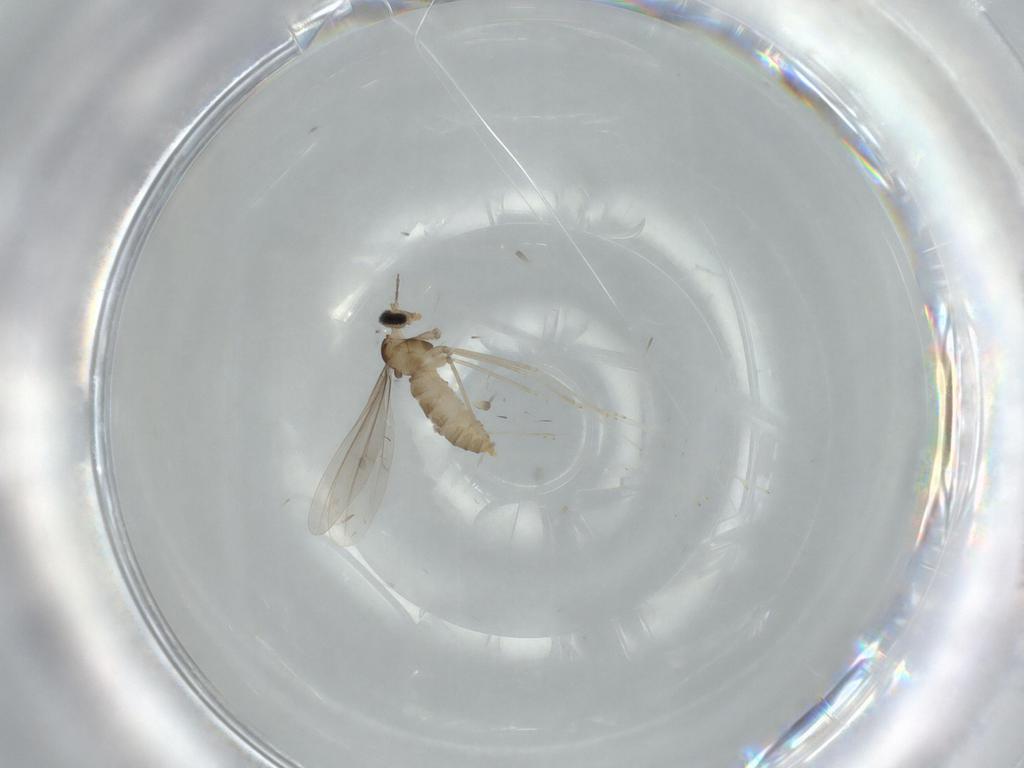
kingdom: Animalia
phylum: Arthropoda
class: Insecta
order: Diptera
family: Cecidomyiidae
